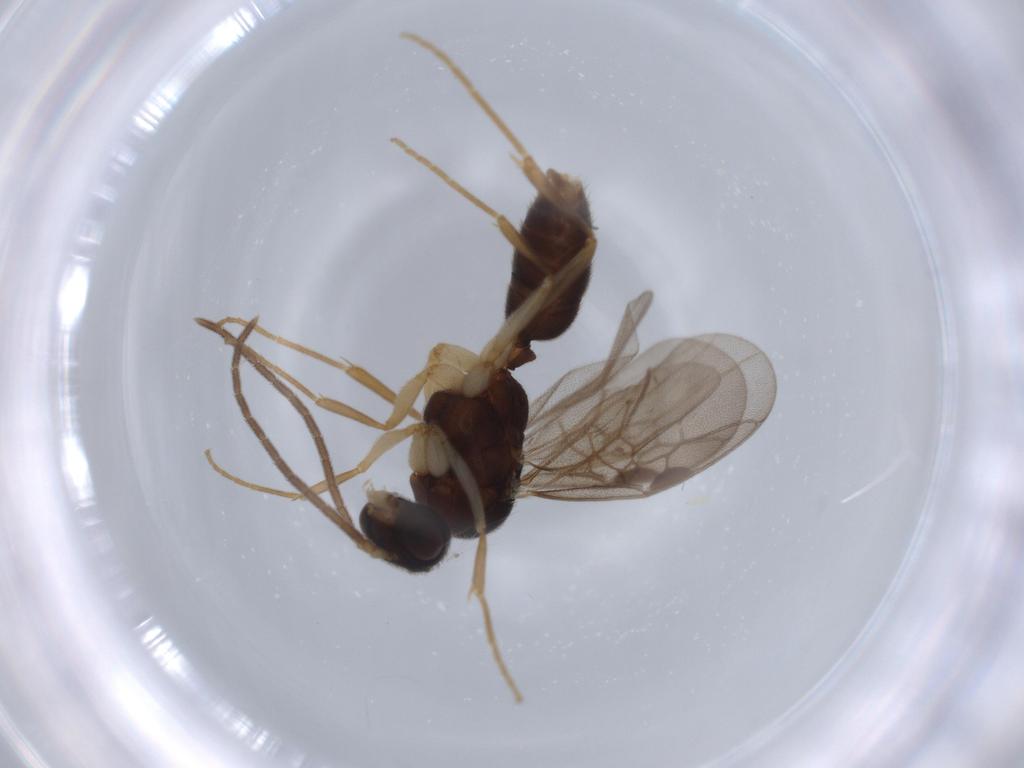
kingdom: Animalia
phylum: Arthropoda
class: Insecta
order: Hymenoptera
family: Formicidae
